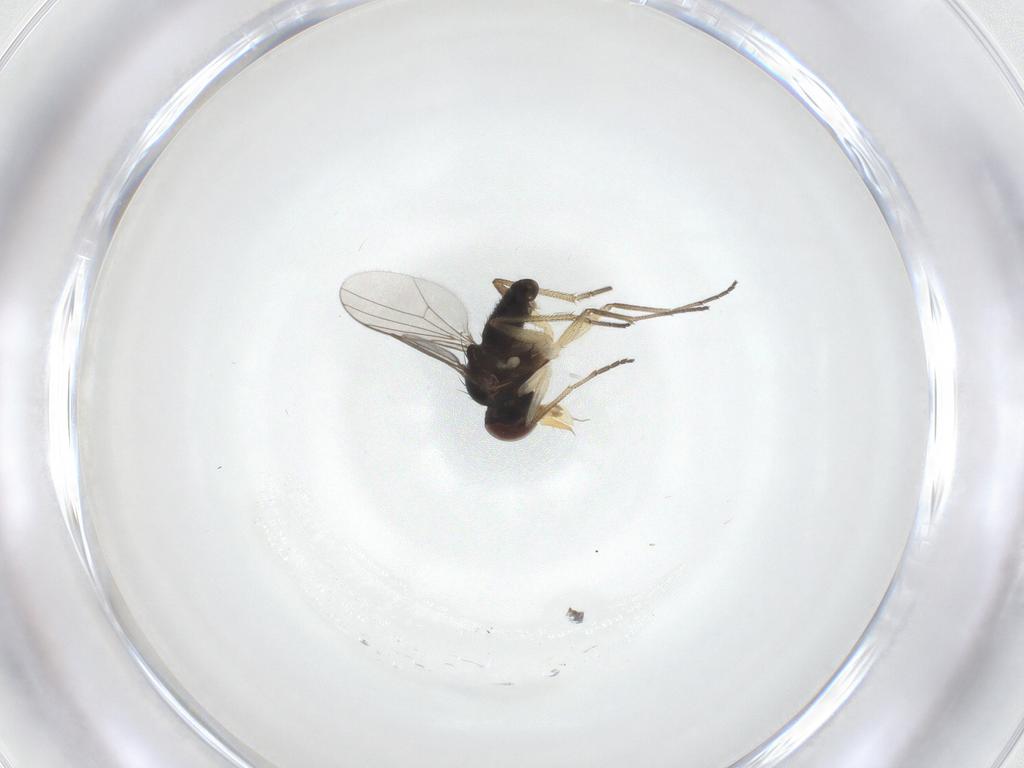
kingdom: Animalia
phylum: Arthropoda
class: Insecta
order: Diptera
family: Dolichopodidae
